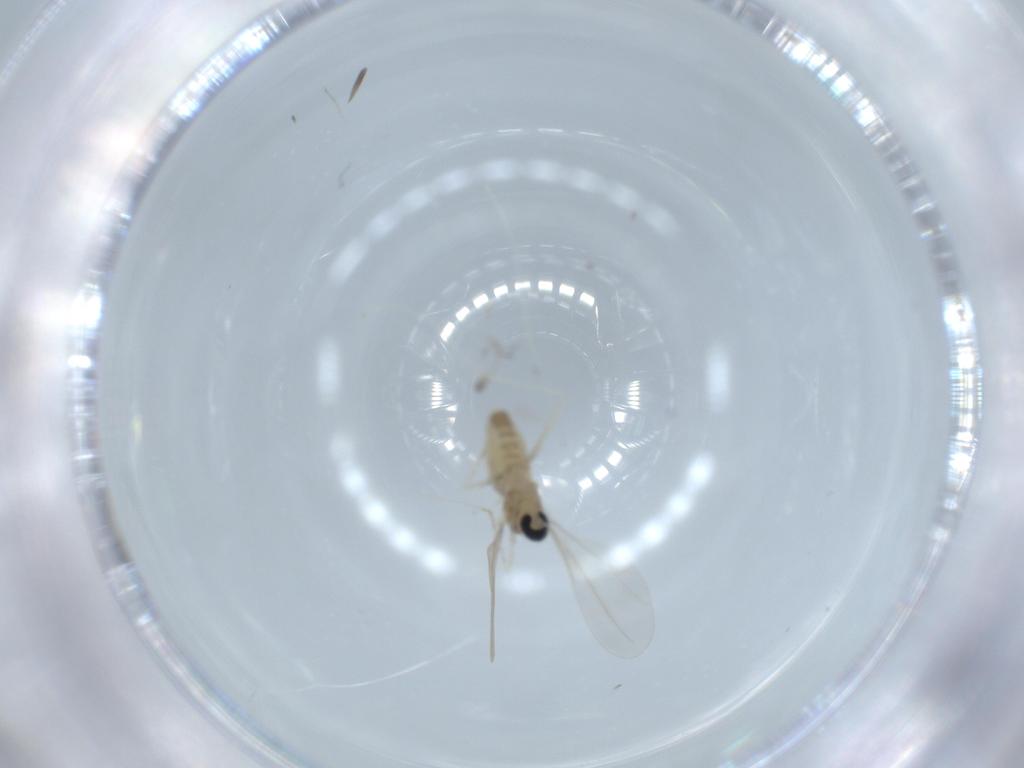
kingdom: Animalia
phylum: Arthropoda
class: Insecta
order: Diptera
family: Cecidomyiidae
